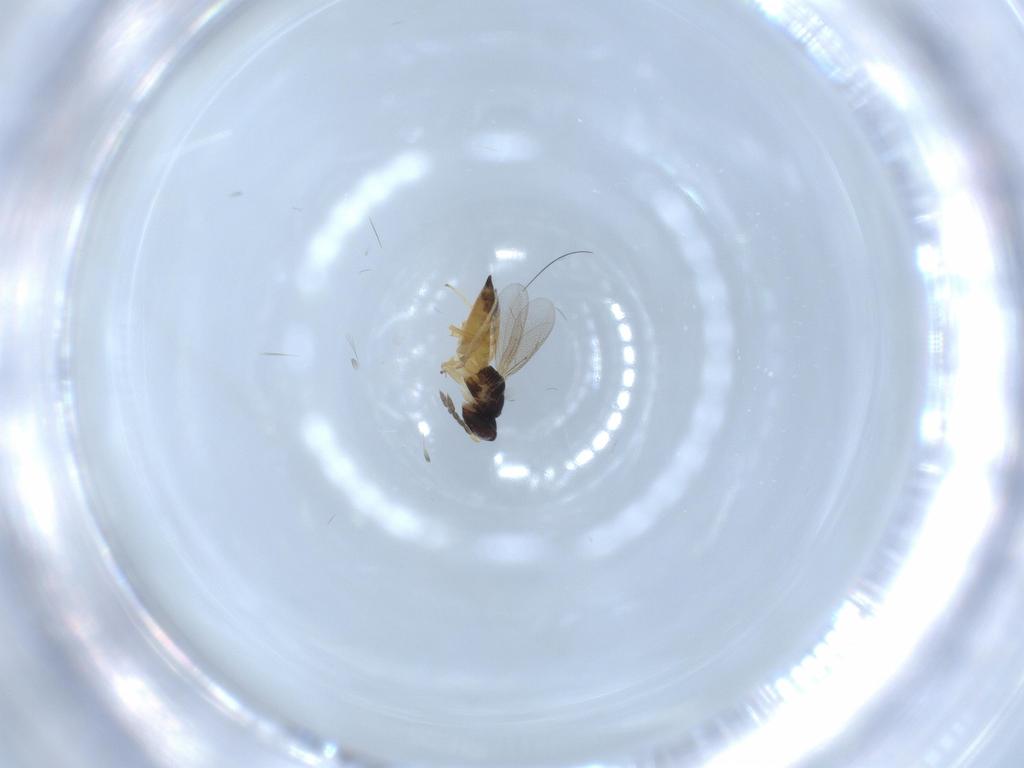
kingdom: Animalia
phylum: Arthropoda
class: Insecta
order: Hymenoptera
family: Eulophidae
